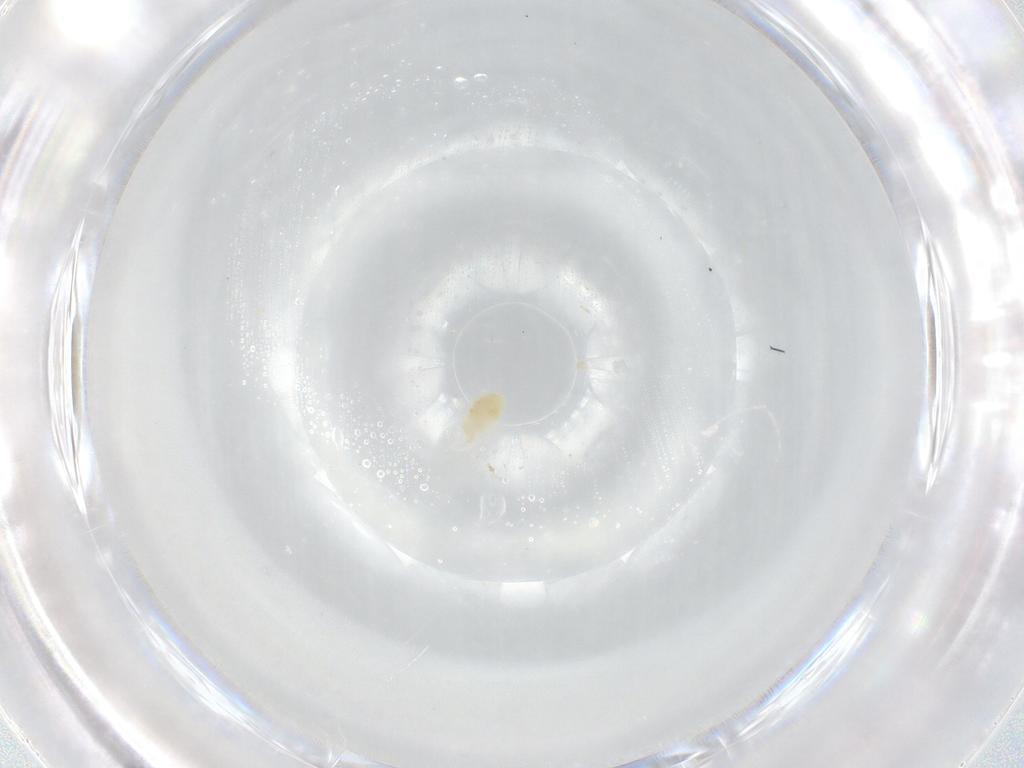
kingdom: Animalia
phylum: Arthropoda
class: Arachnida
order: Trombidiformes
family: Eupodidae
